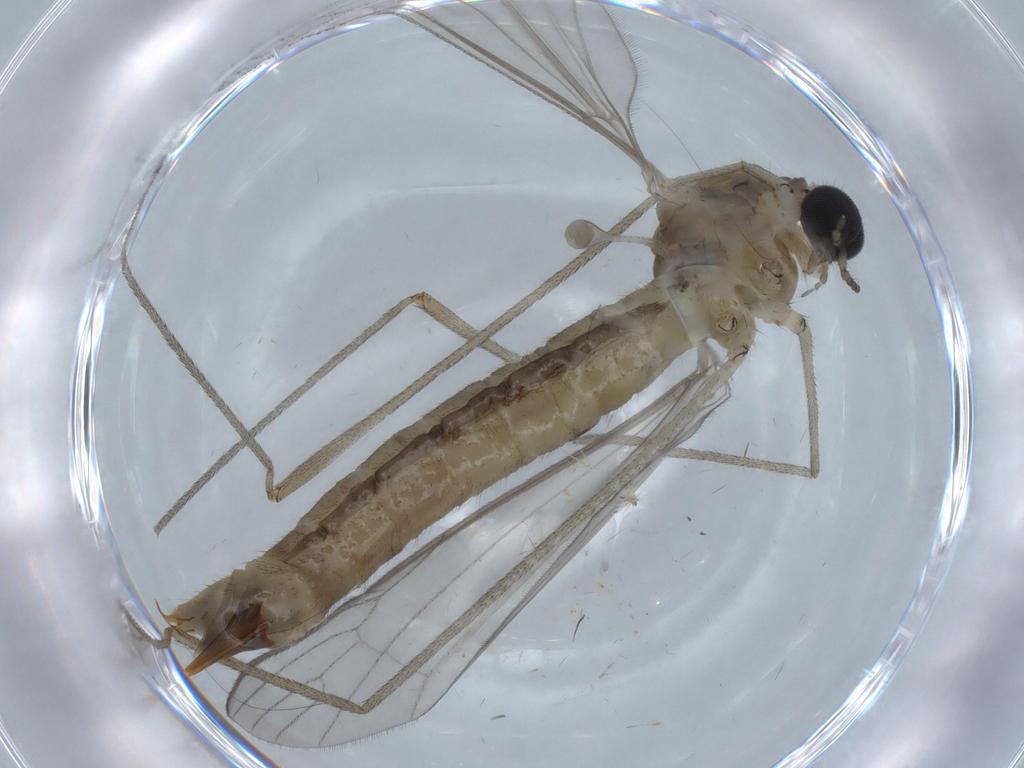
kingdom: Animalia
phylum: Arthropoda
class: Insecta
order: Diptera
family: Limoniidae
